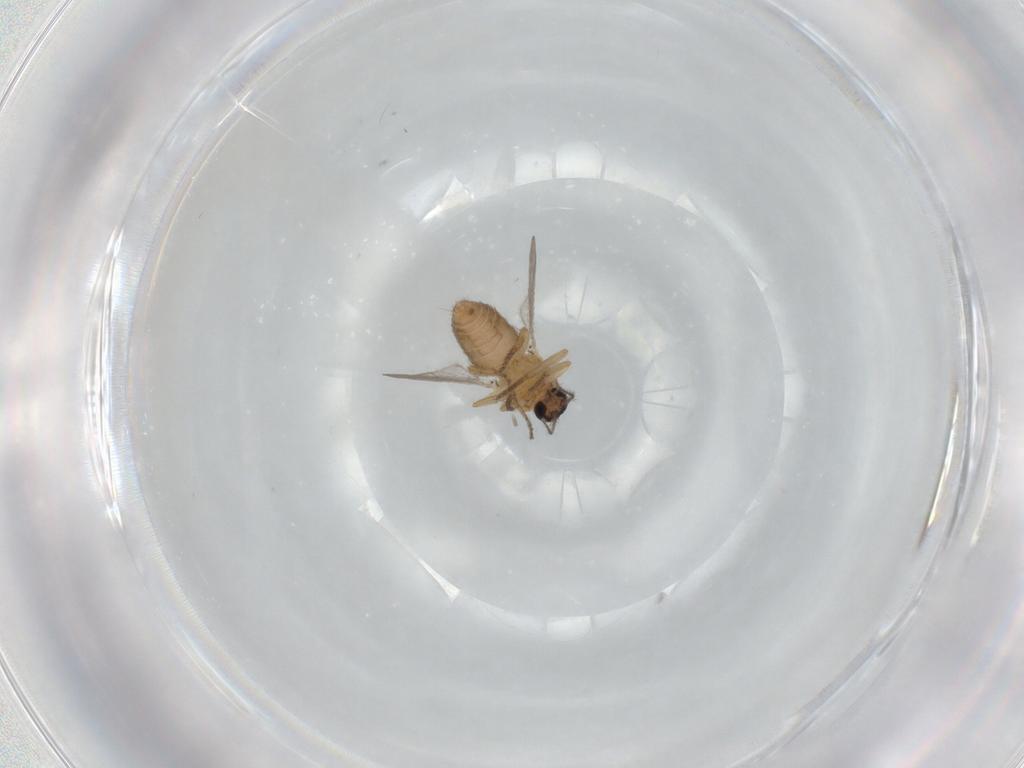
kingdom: Animalia
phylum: Arthropoda
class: Insecta
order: Diptera
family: Ceratopogonidae
